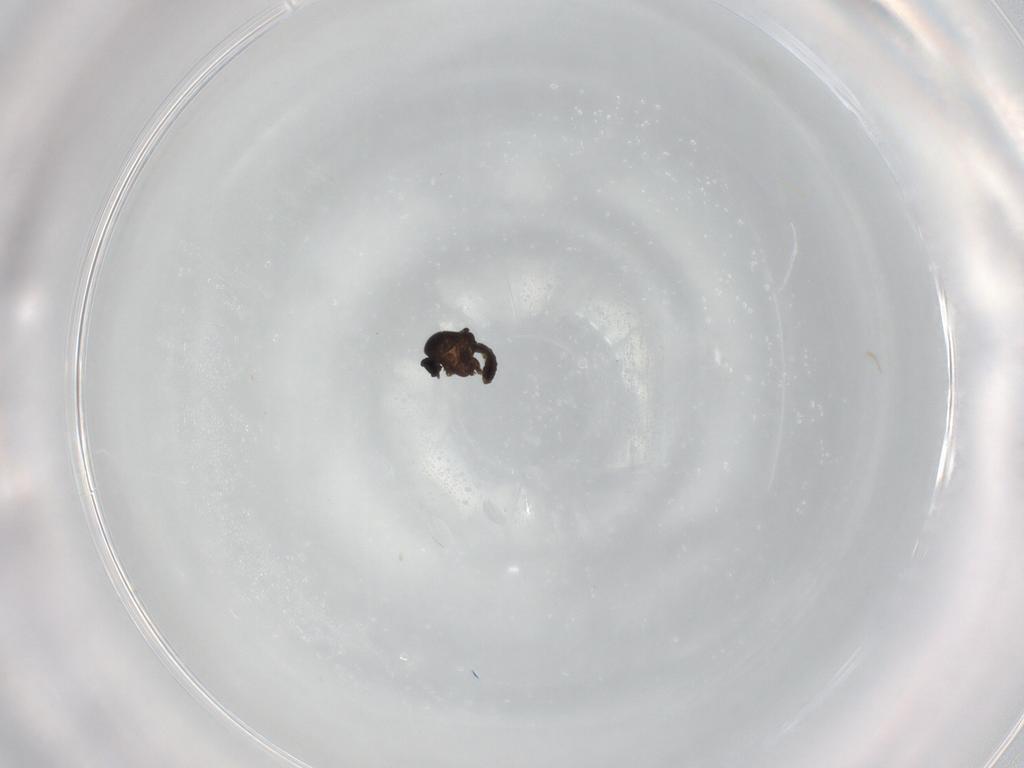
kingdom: Animalia
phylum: Arthropoda
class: Insecta
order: Diptera
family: Ceratopogonidae
